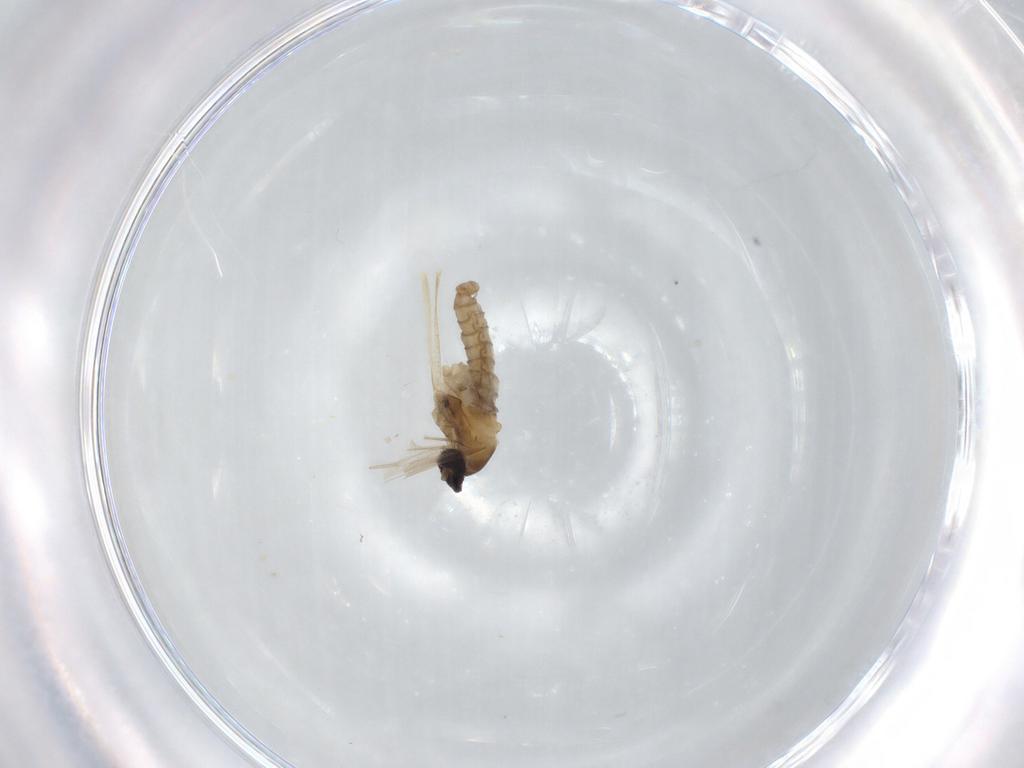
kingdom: Animalia
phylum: Arthropoda
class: Insecta
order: Diptera
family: Cecidomyiidae
